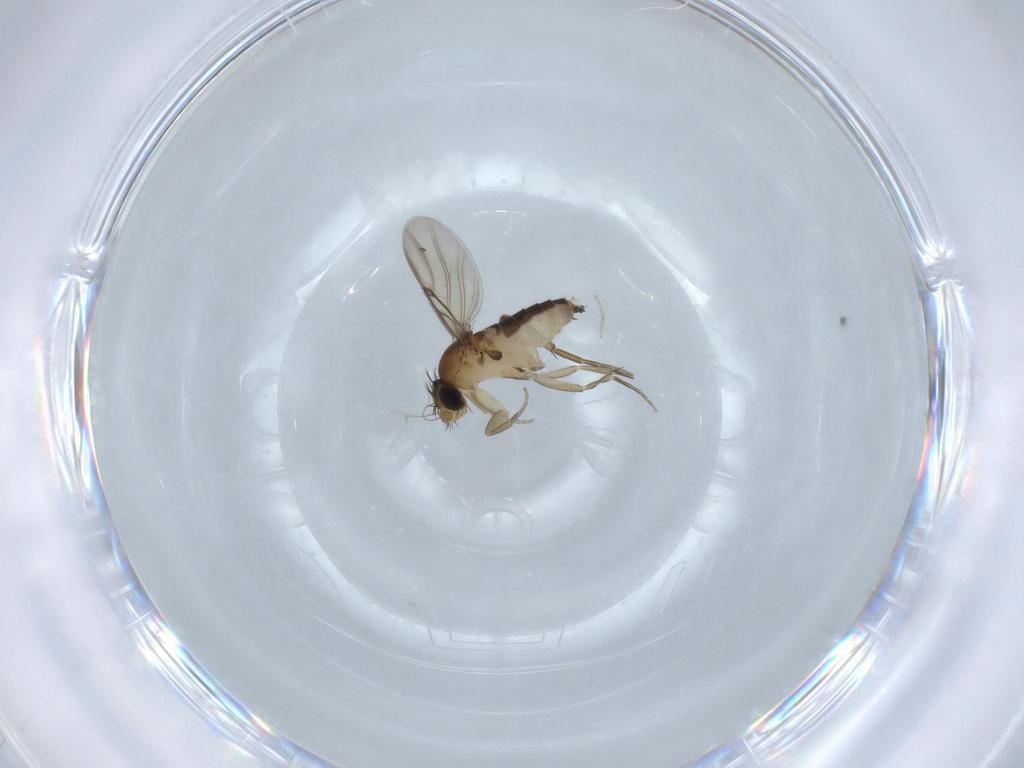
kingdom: Animalia
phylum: Arthropoda
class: Insecta
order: Diptera
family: Phoridae
